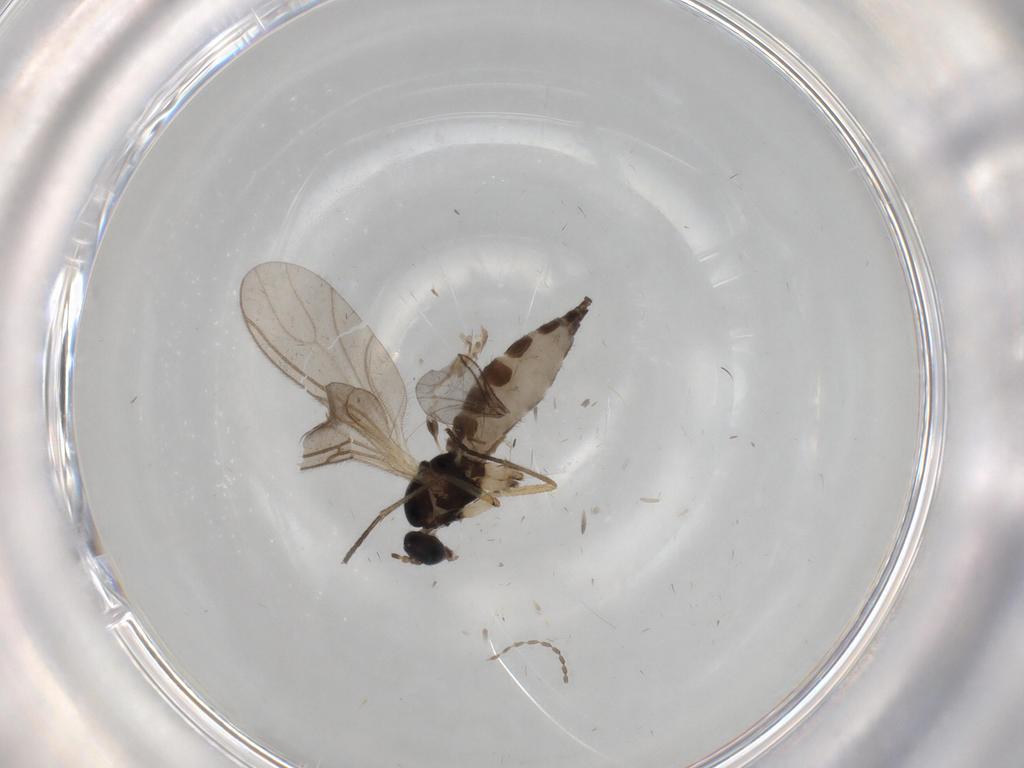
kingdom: Animalia
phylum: Arthropoda
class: Insecta
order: Diptera
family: Sciaridae
